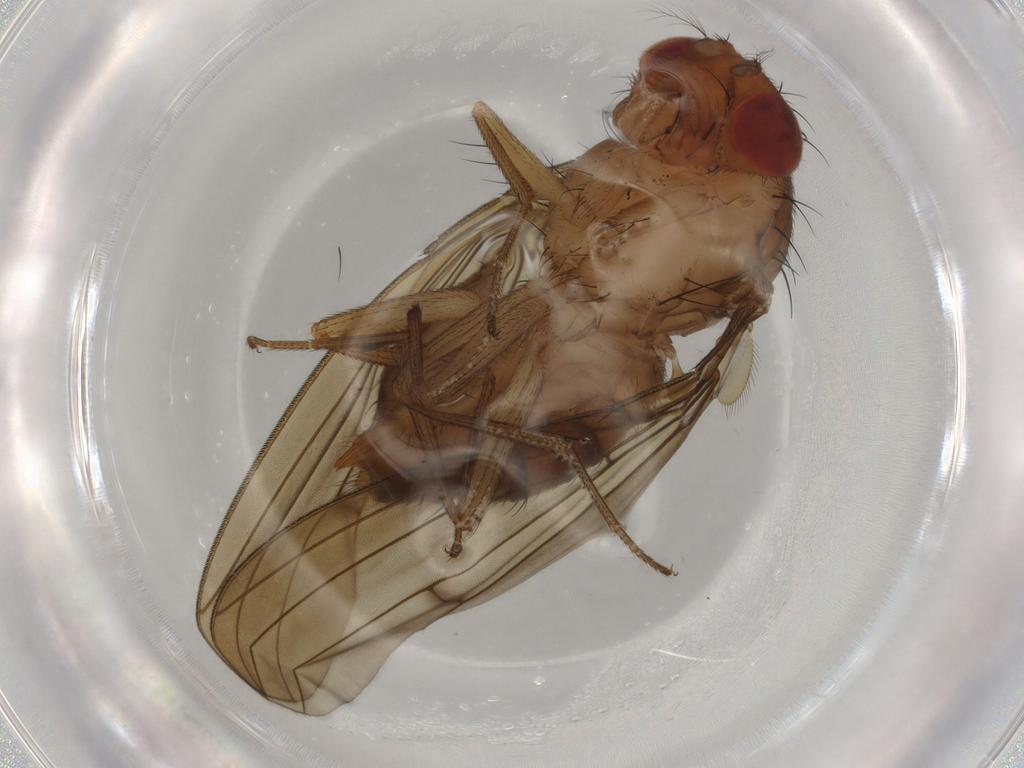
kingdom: Animalia
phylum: Arthropoda
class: Insecta
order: Diptera
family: Drosophilidae
